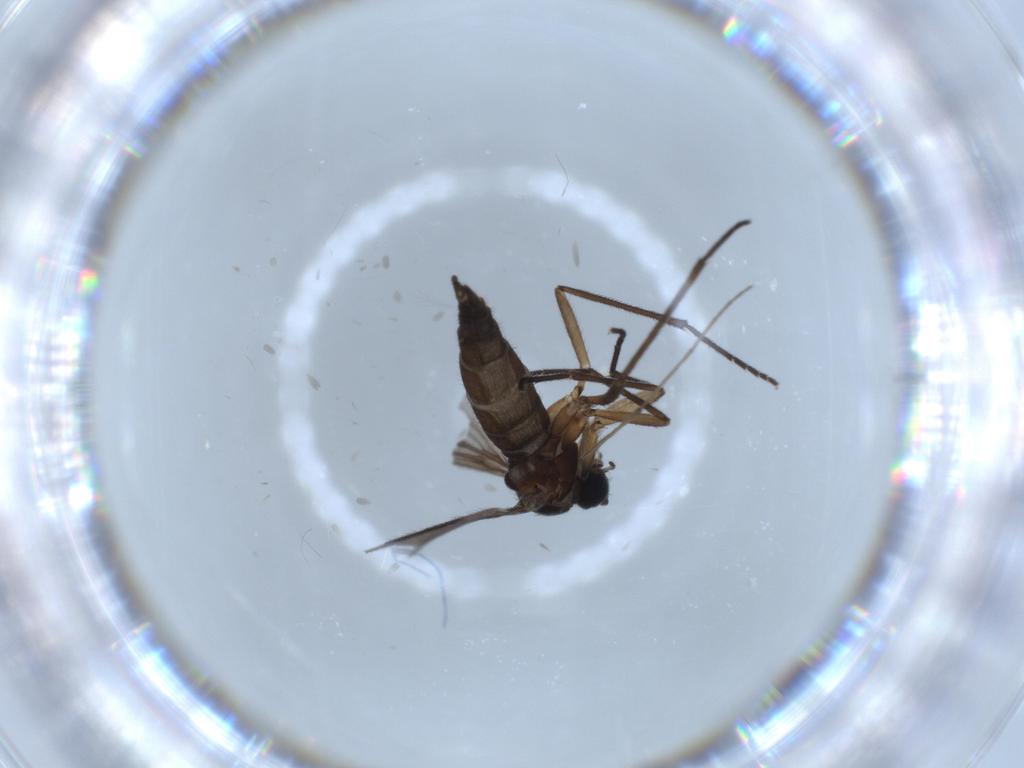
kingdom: Animalia
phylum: Arthropoda
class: Insecta
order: Diptera
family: Chironomidae
